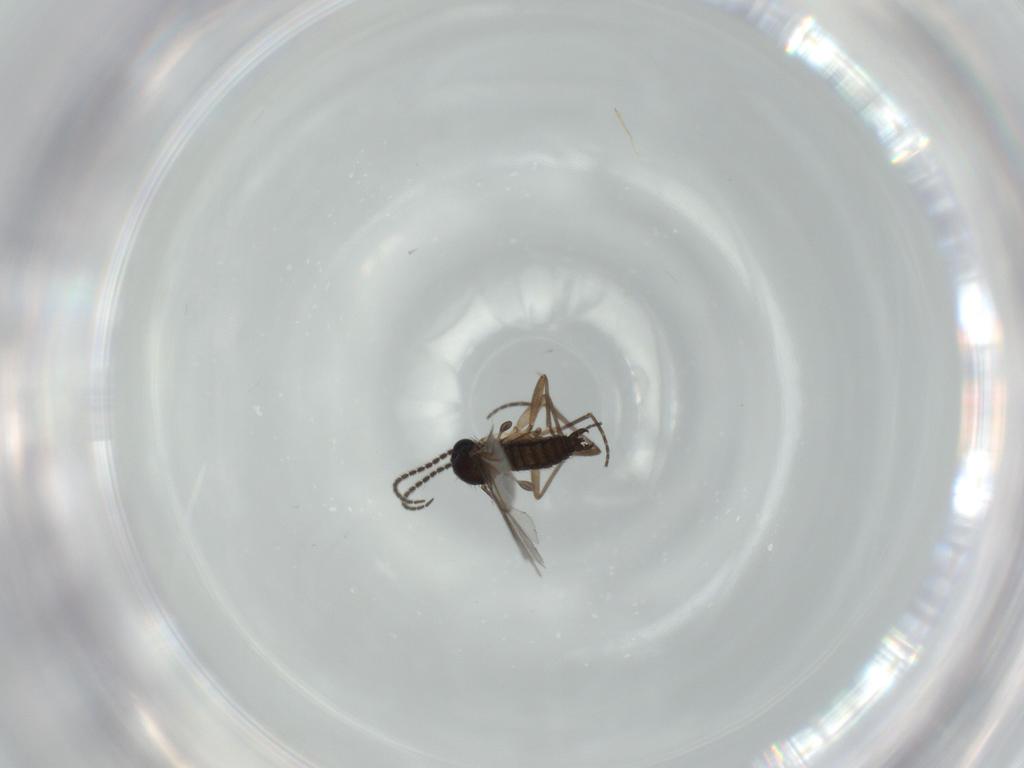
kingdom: Animalia
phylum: Arthropoda
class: Insecta
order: Diptera
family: Sciaridae
